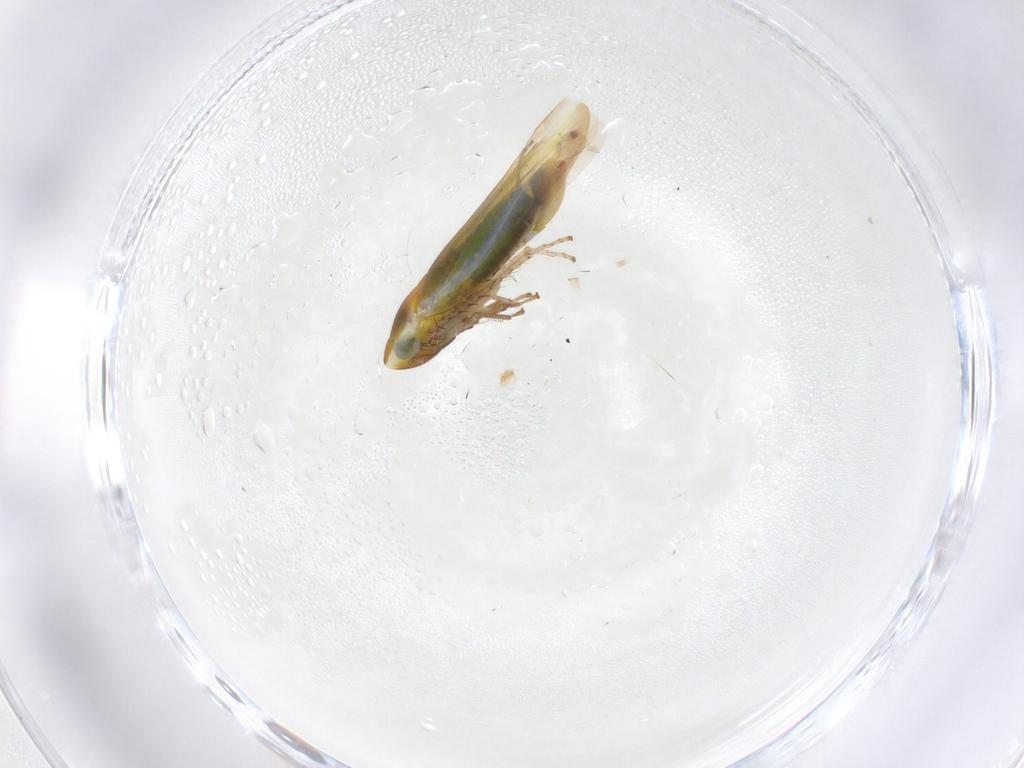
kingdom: Animalia
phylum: Arthropoda
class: Insecta
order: Hemiptera
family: Cicadellidae
